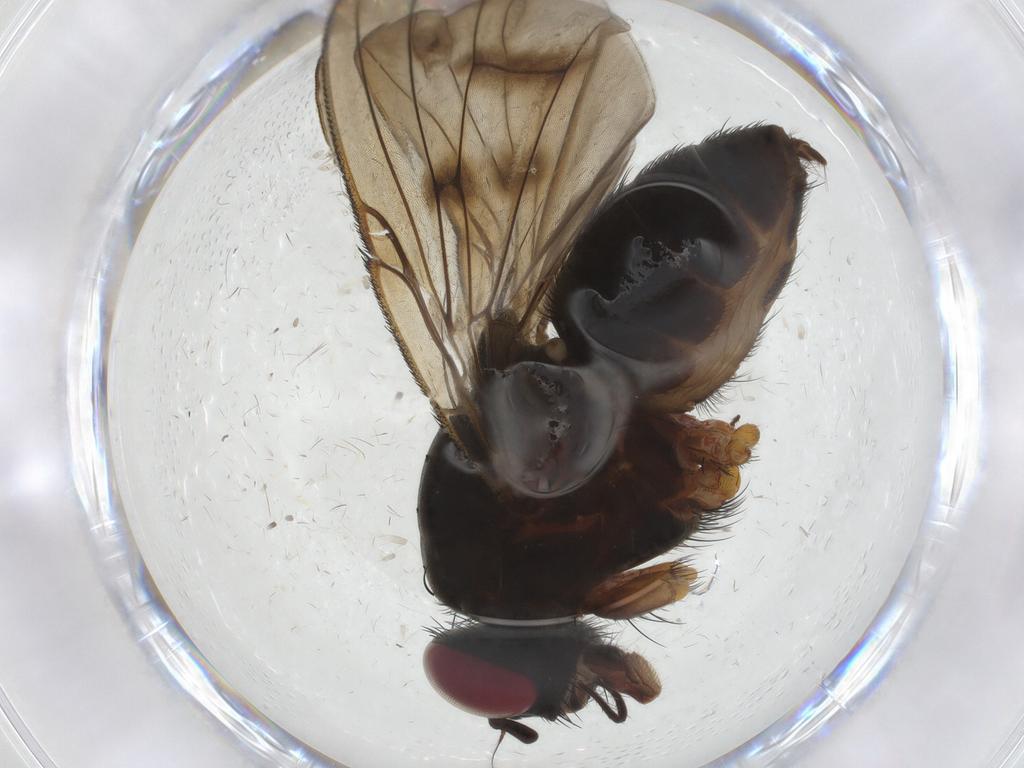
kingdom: Animalia
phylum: Arthropoda
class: Insecta
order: Diptera
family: Muscidae
